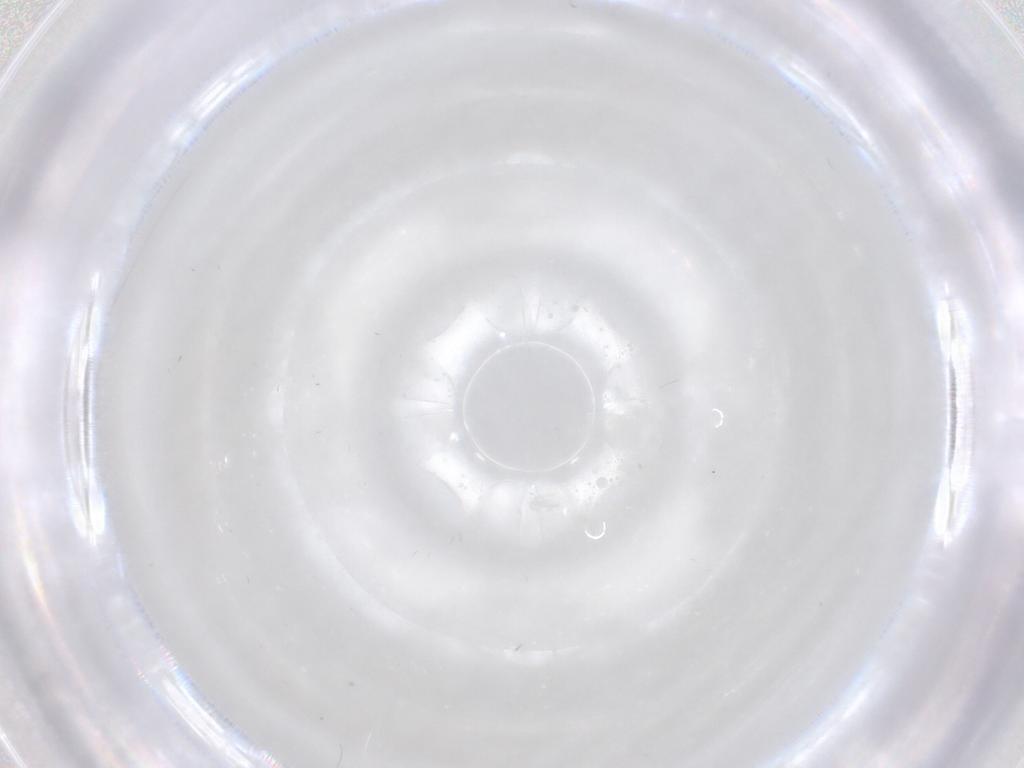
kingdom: Animalia
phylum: Arthropoda
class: Insecta
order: Diptera
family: Cecidomyiidae
